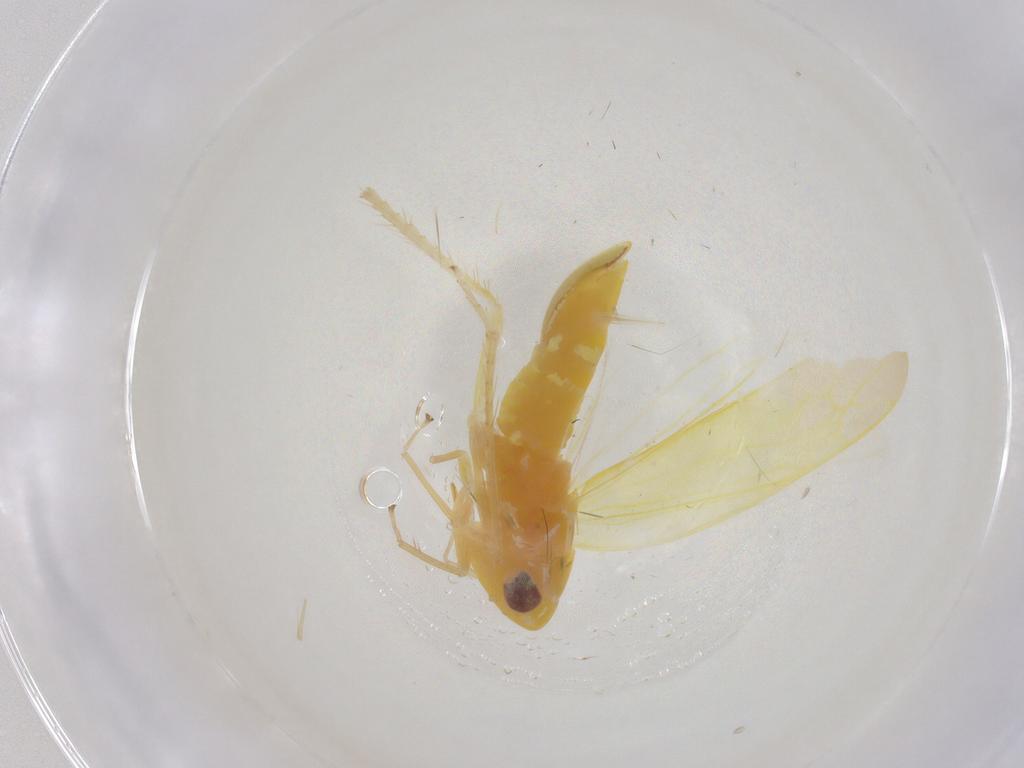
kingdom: Animalia
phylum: Arthropoda
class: Insecta
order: Hemiptera
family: Cicadellidae
